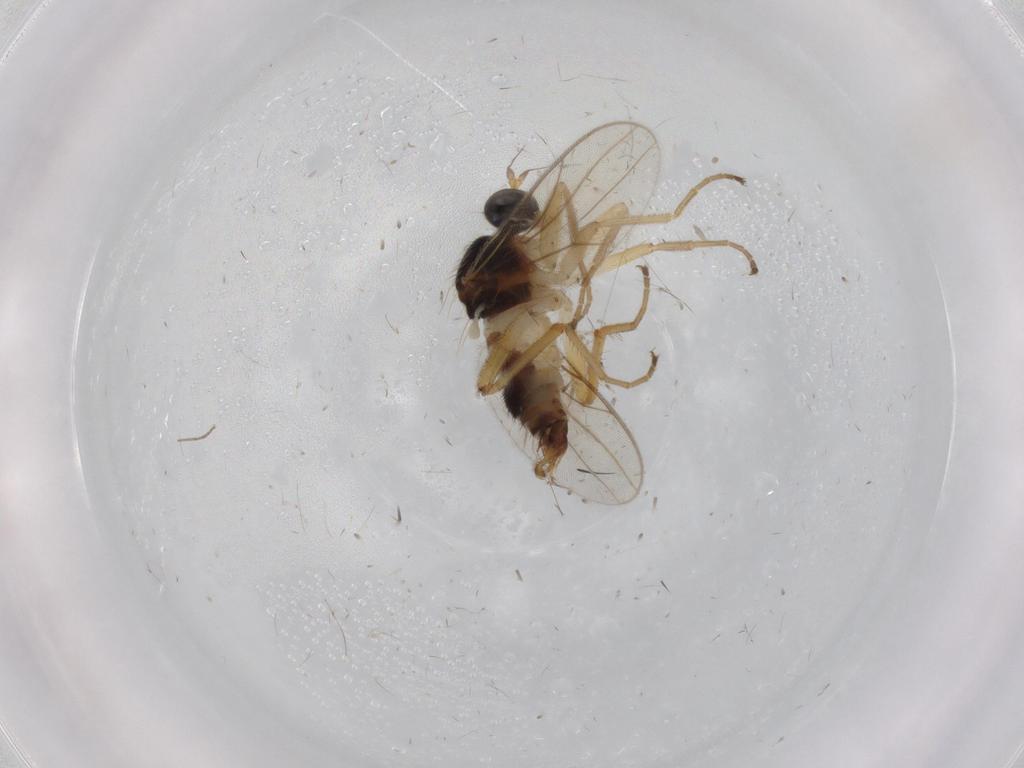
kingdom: Animalia
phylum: Arthropoda
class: Insecta
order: Diptera
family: Hybotidae
